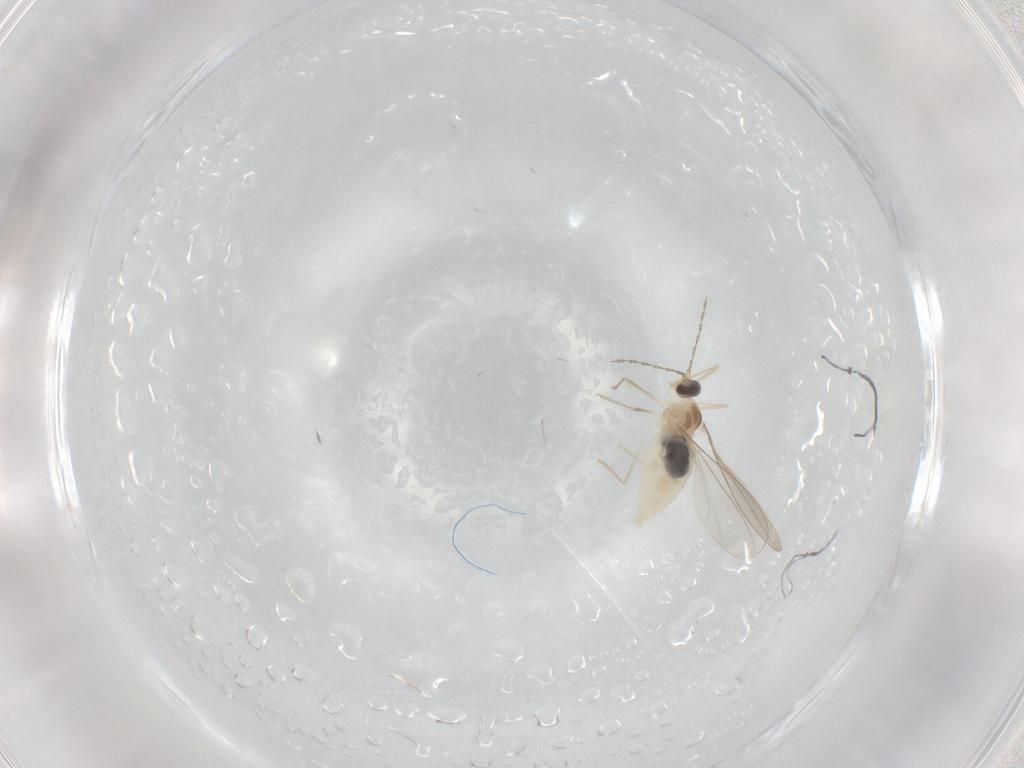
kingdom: Animalia
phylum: Arthropoda
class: Insecta
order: Diptera
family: Cecidomyiidae
